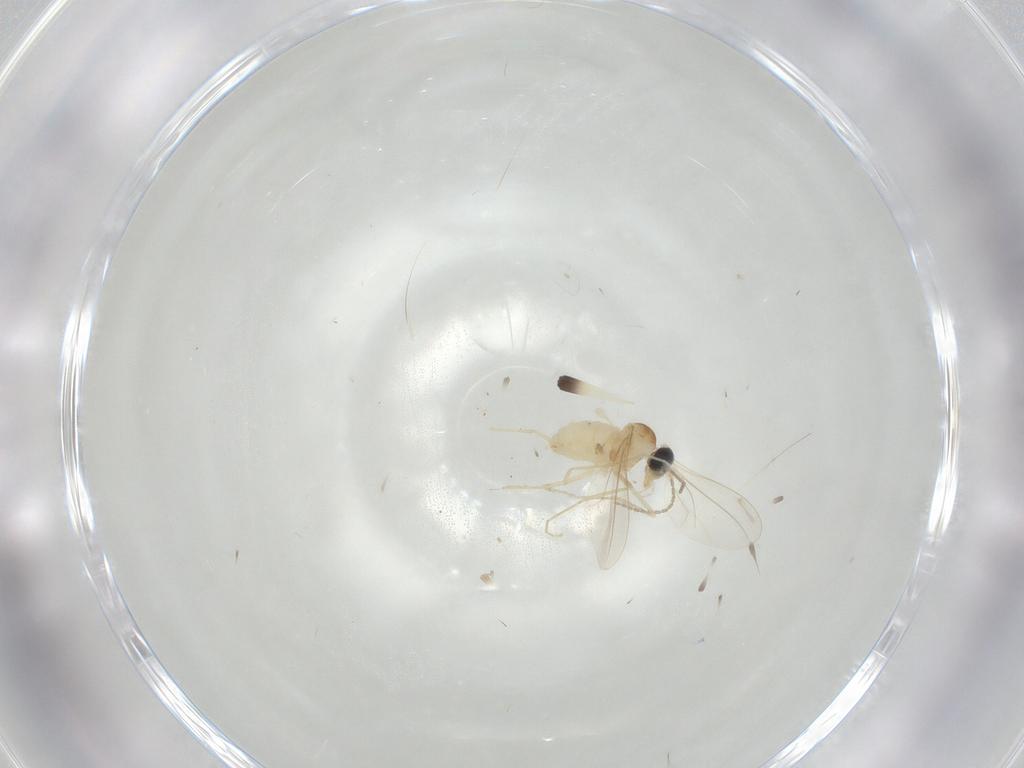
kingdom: Animalia
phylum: Arthropoda
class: Insecta
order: Diptera
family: Cecidomyiidae
